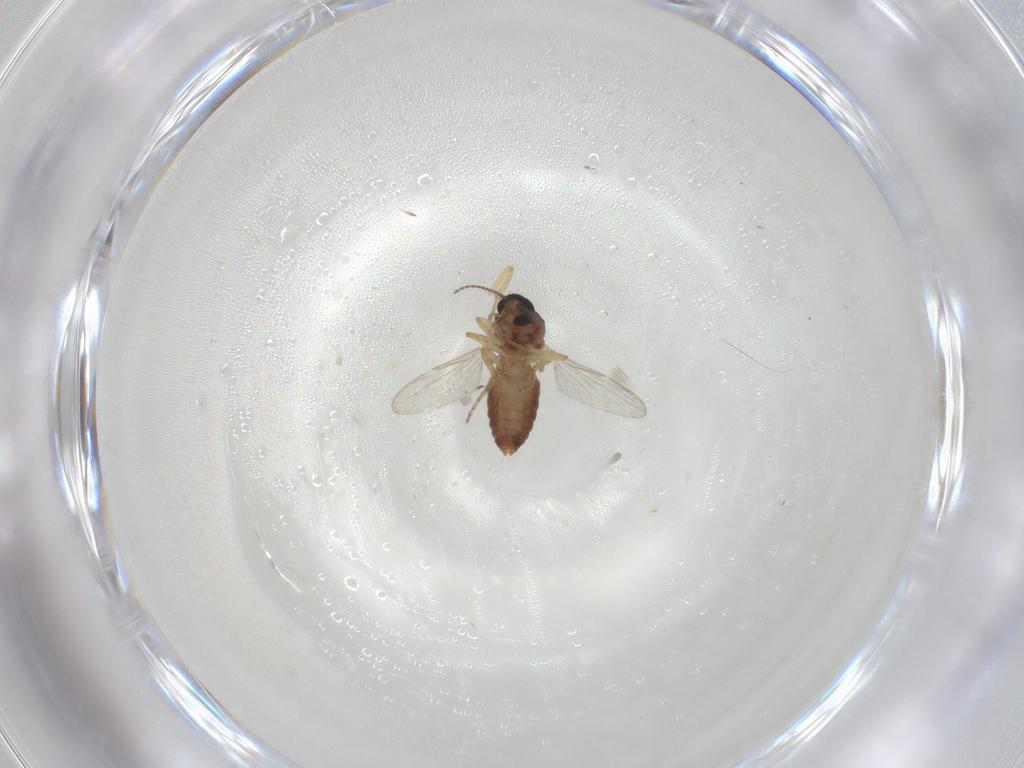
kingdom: Animalia
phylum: Arthropoda
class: Insecta
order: Diptera
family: Ceratopogonidae
